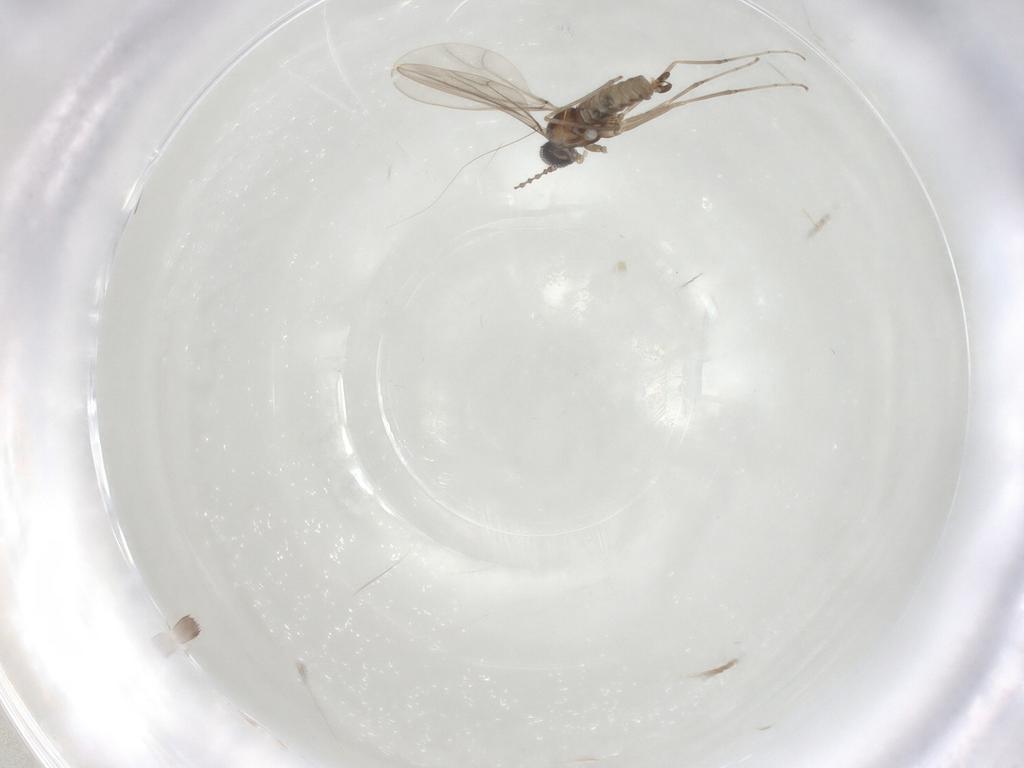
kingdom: Animalia
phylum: Arthropoda
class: Insecta
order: Diptera
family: Cecidomyiidae
